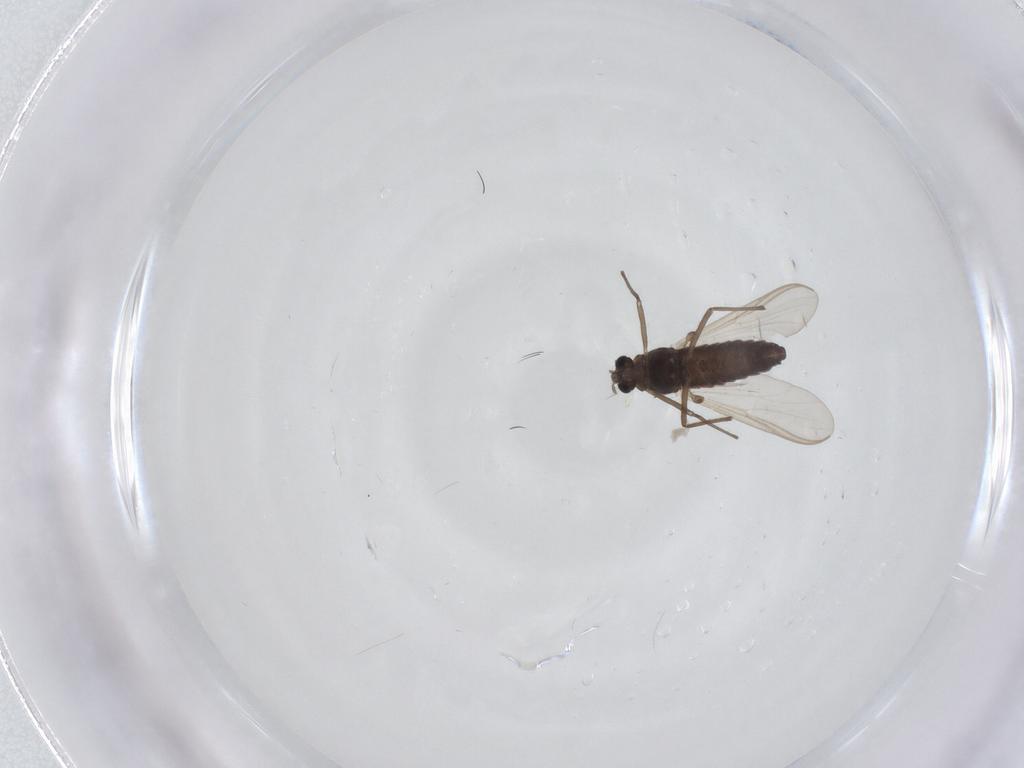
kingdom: Animalia
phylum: Arthropoda
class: Insecta
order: Diptera
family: Chironomidae
